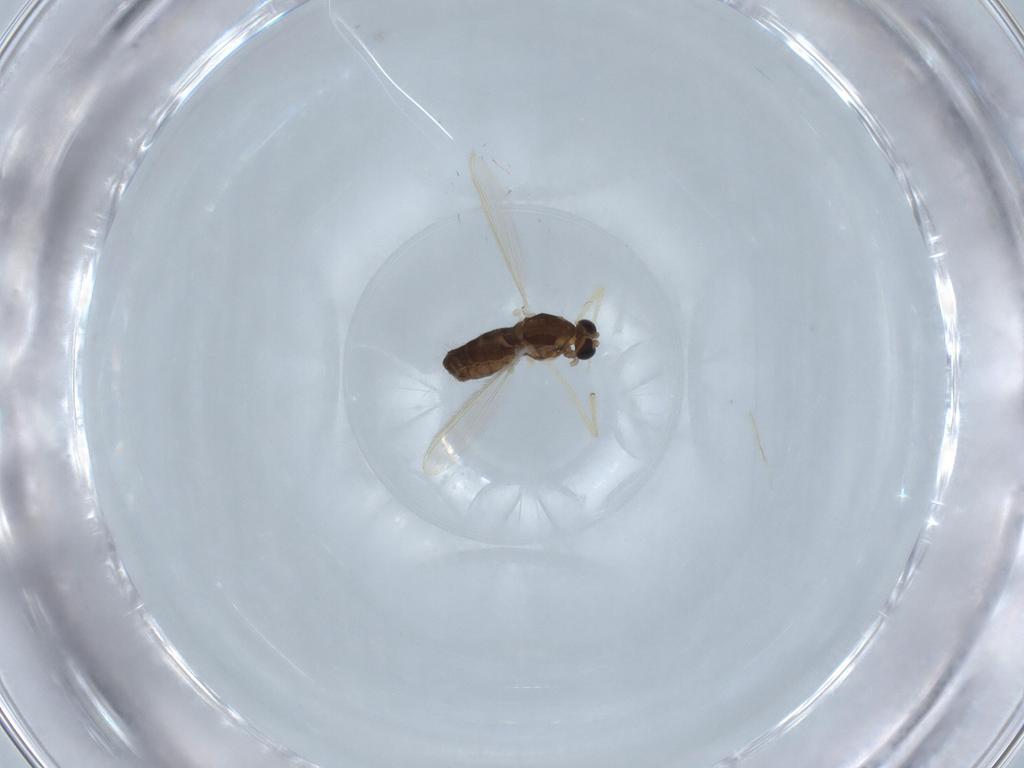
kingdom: Animalia
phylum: Arthropoda
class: Insecta
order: Diptera
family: Chironomidae
